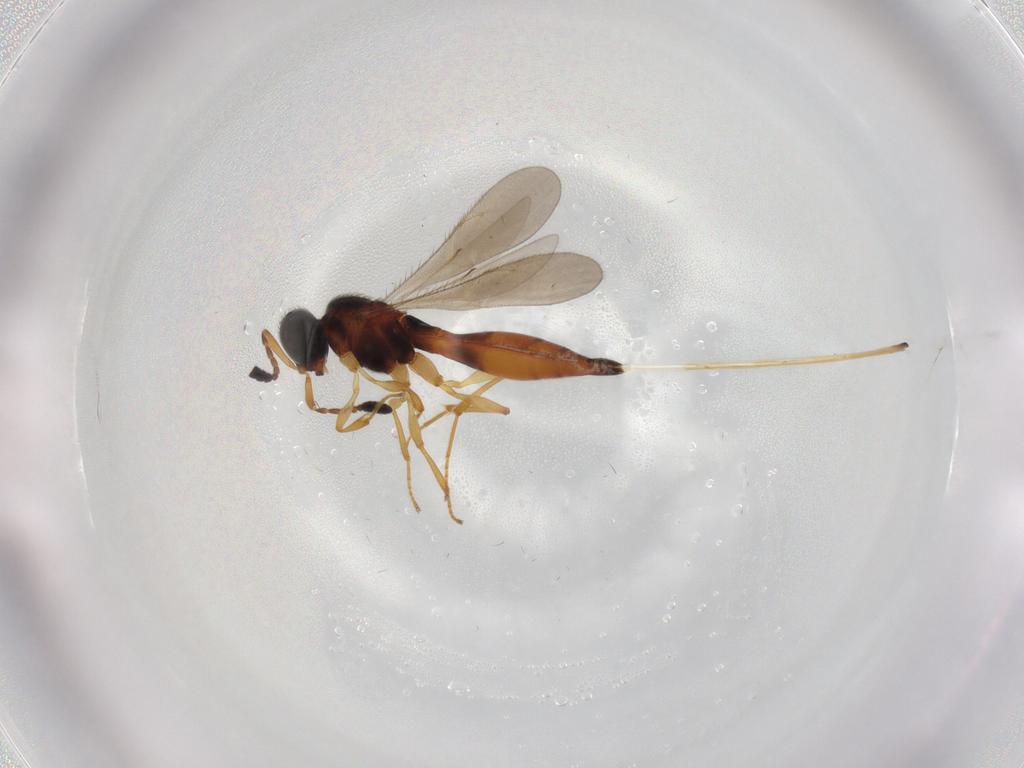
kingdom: Animalia
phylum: Arthropoda
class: Insecta
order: Hymenoptera
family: Scelionidae
